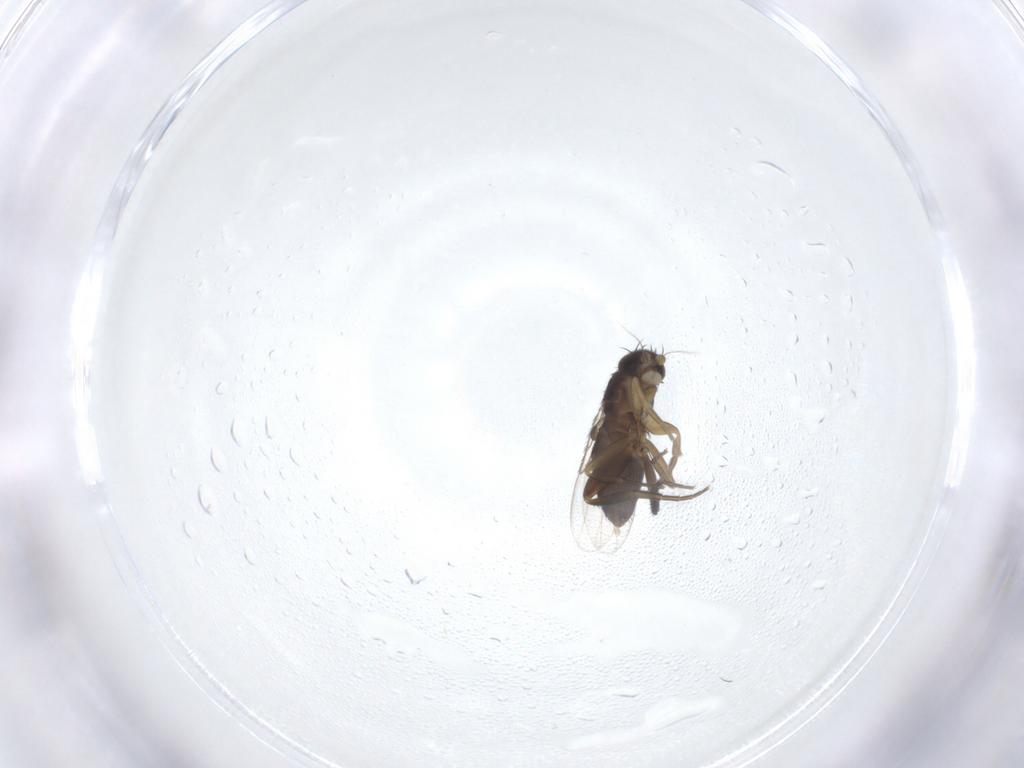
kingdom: Animalia
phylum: Arthropoda
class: Insecta
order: Diptera
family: Phoridae
